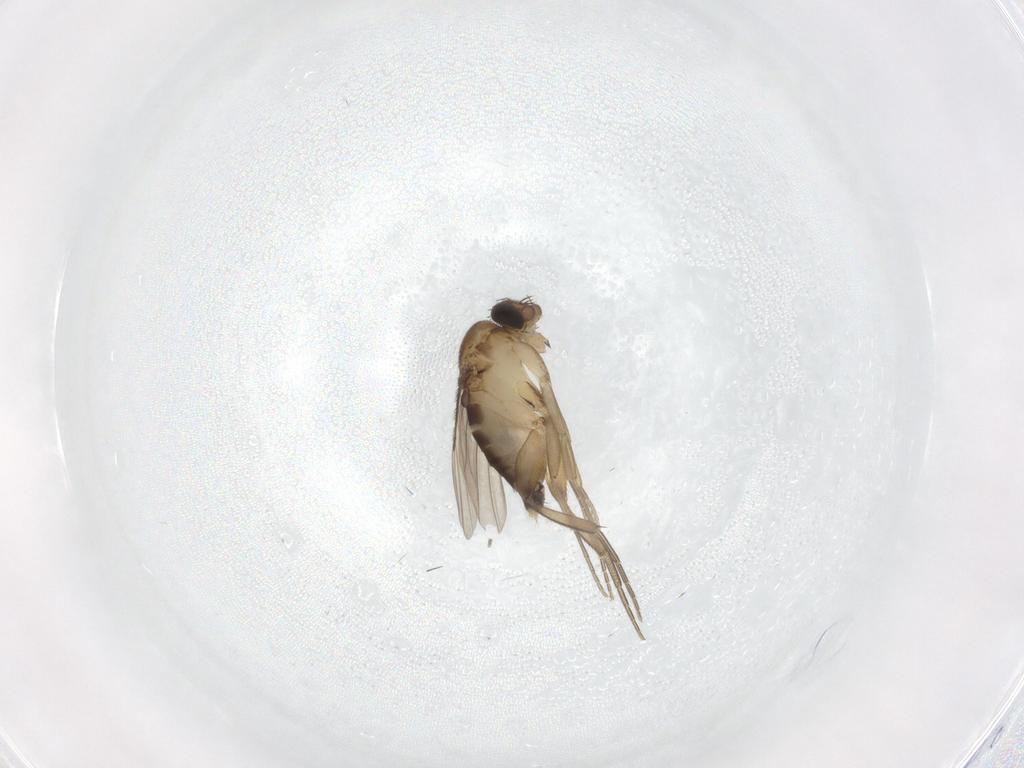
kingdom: Animalia
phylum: Arthropoda
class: Insecta
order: Diptera
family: Phoridae
